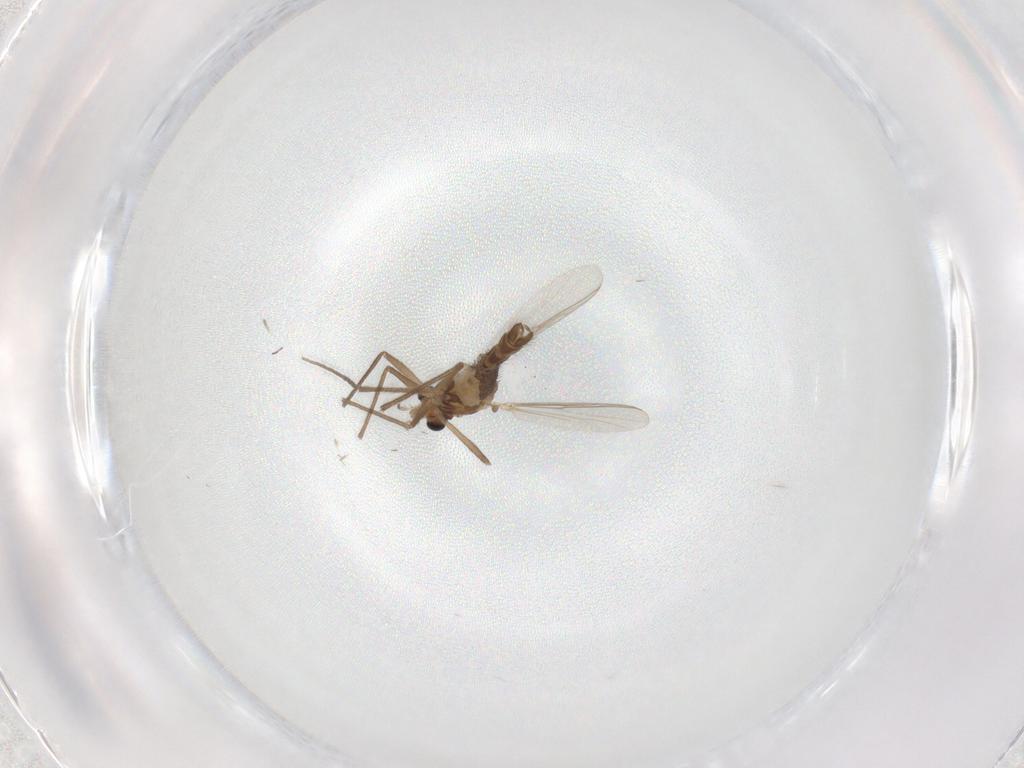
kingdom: Animalia
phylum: Arthropoda
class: Insecta
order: Diptera
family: Chironomidae
